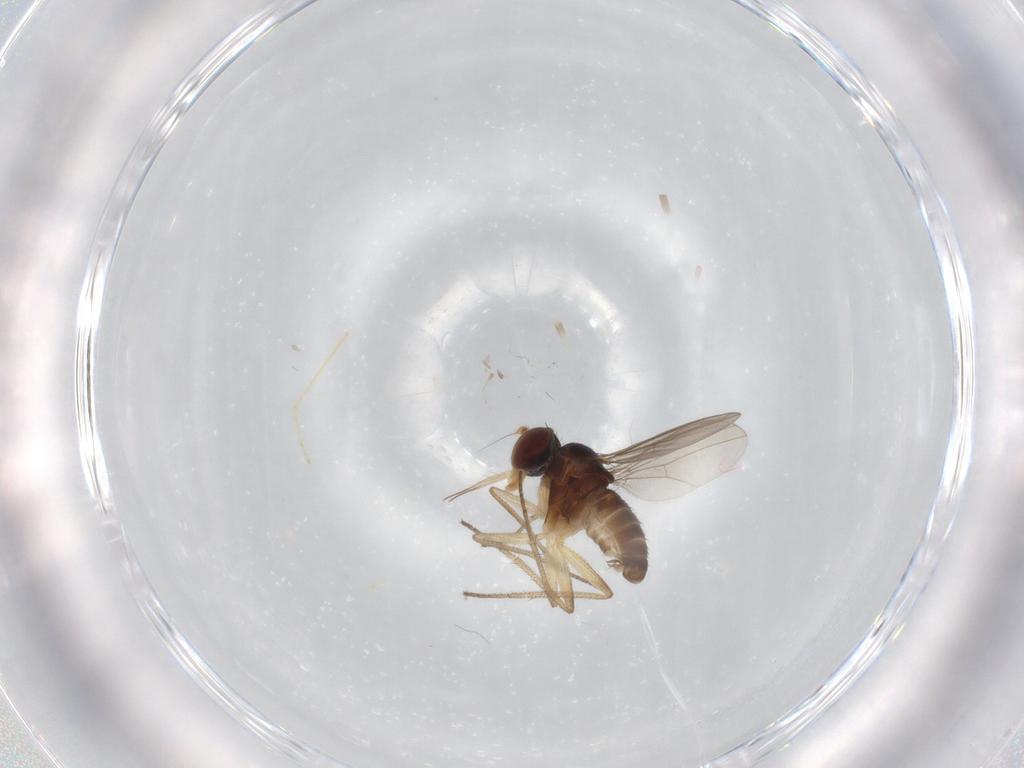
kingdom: Animalia
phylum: Arthropoda
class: Insecta
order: Diptera
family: Dolichopodidae
